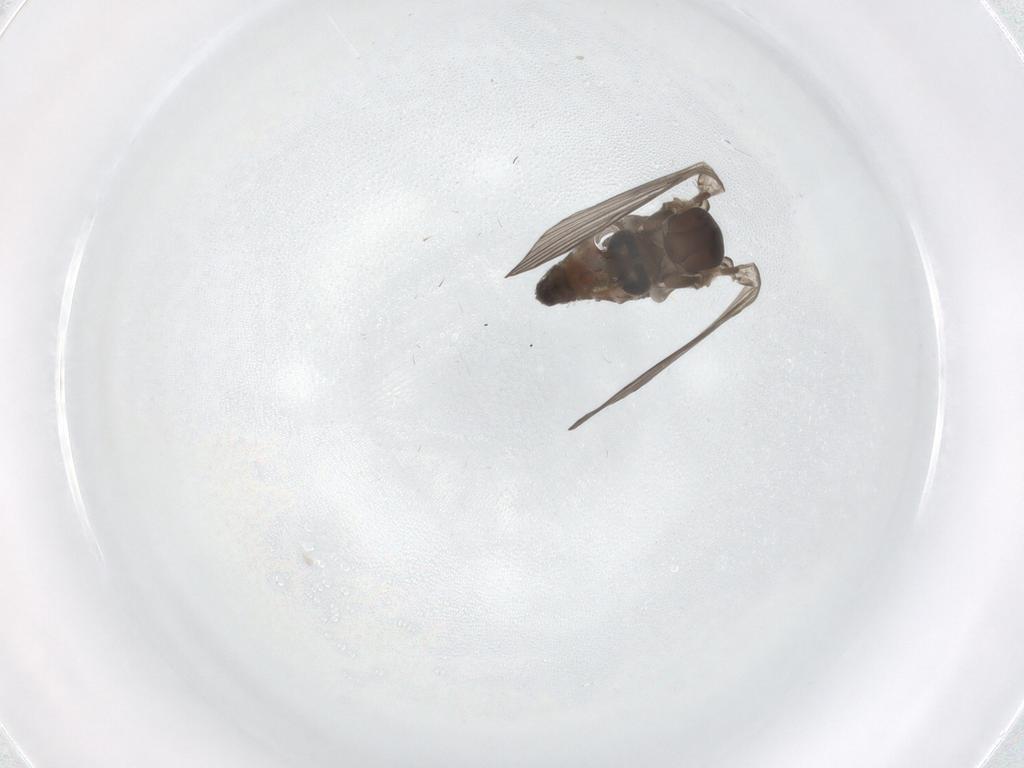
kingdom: Animalia
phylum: Arthropoda
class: Insecta
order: Diptera
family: Psychodidae
